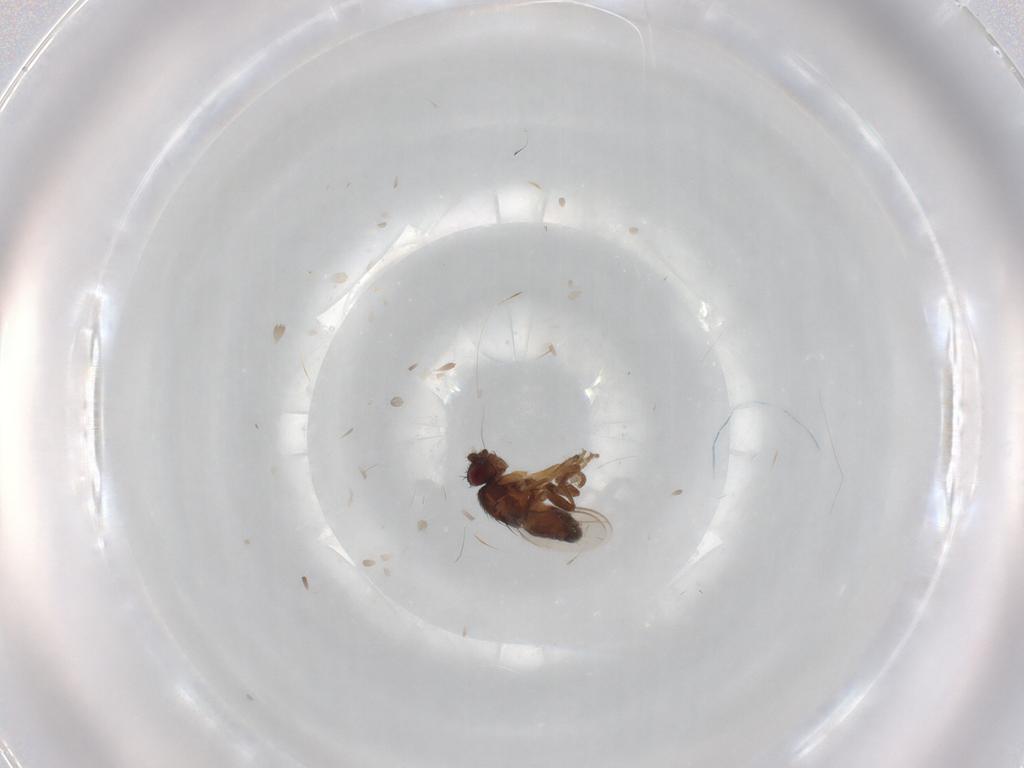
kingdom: Animalia
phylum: Arthropoda
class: Insecta
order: Diptera
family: Sphaeroceridae
